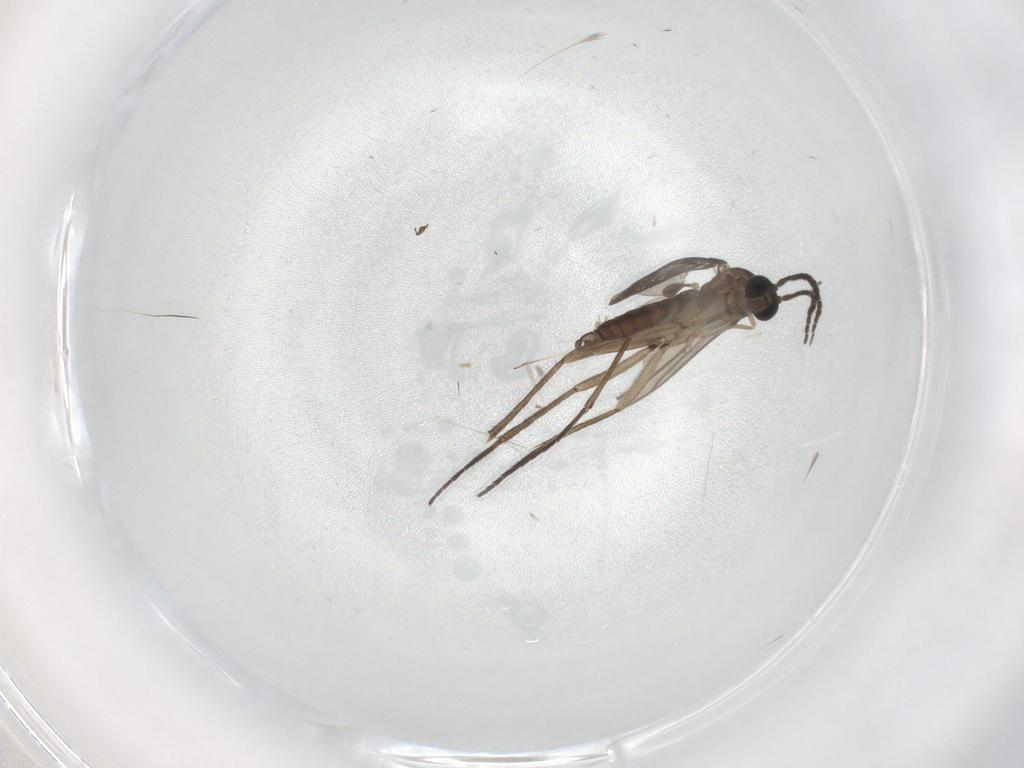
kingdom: Animalia
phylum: Arthropoda
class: Insecta
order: Diptera
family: Sciaridae
